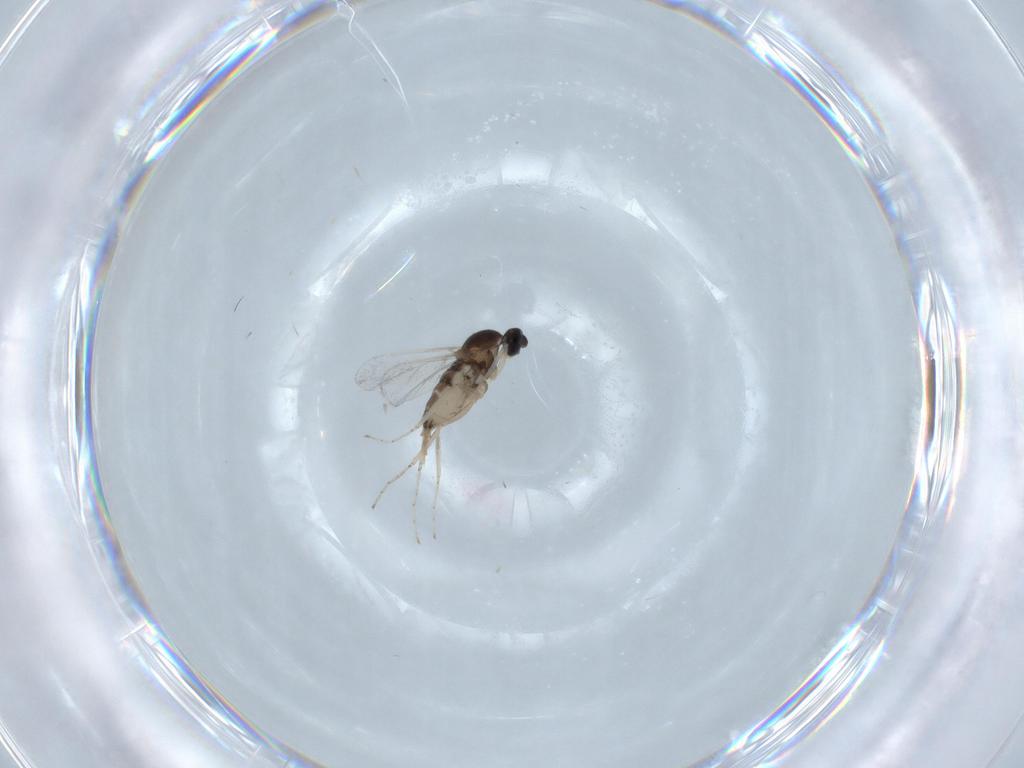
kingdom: Animalia
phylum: Arthropoda
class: Insecta
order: Diptera
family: Cecidomyiidae
